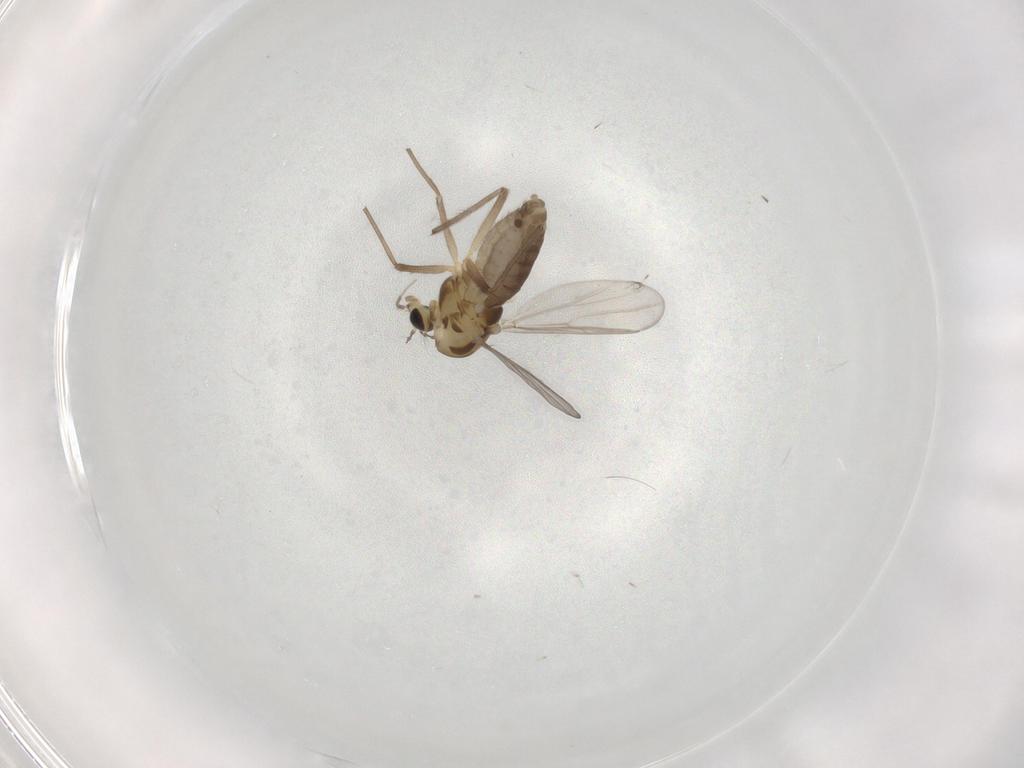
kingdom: Animalia
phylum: Arthropoda
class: Insecta
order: Diptera
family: Chironomidae
